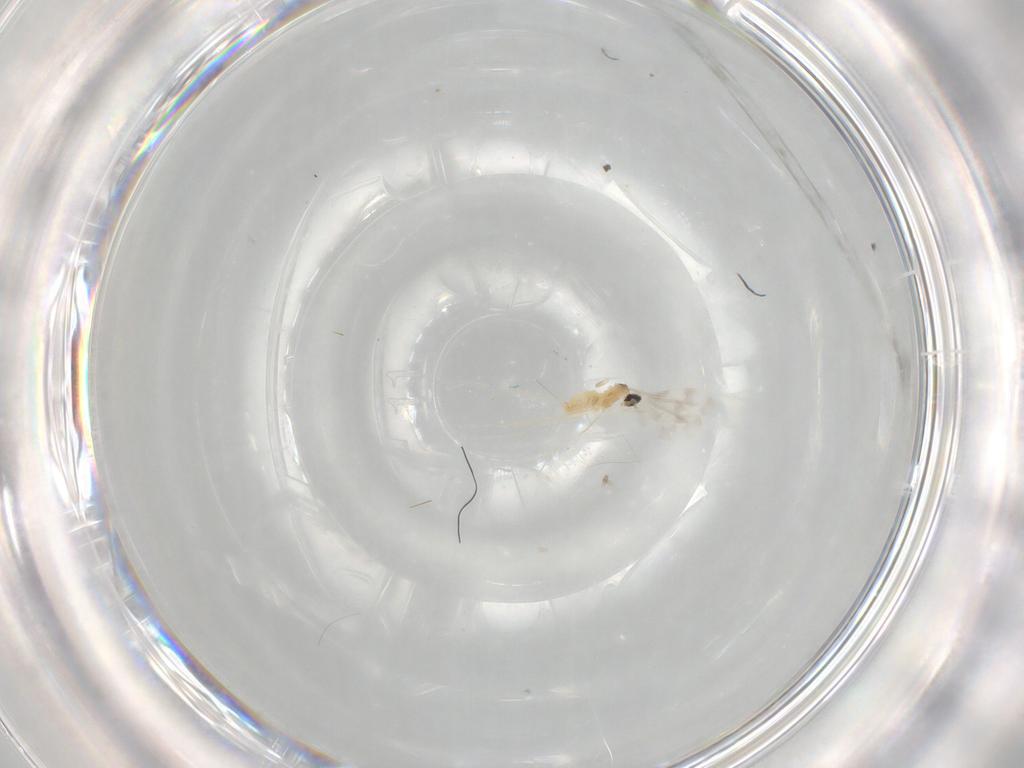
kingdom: Animalia
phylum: Arthropoda
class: Insecta
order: Diptera
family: Cecidomyiidae
